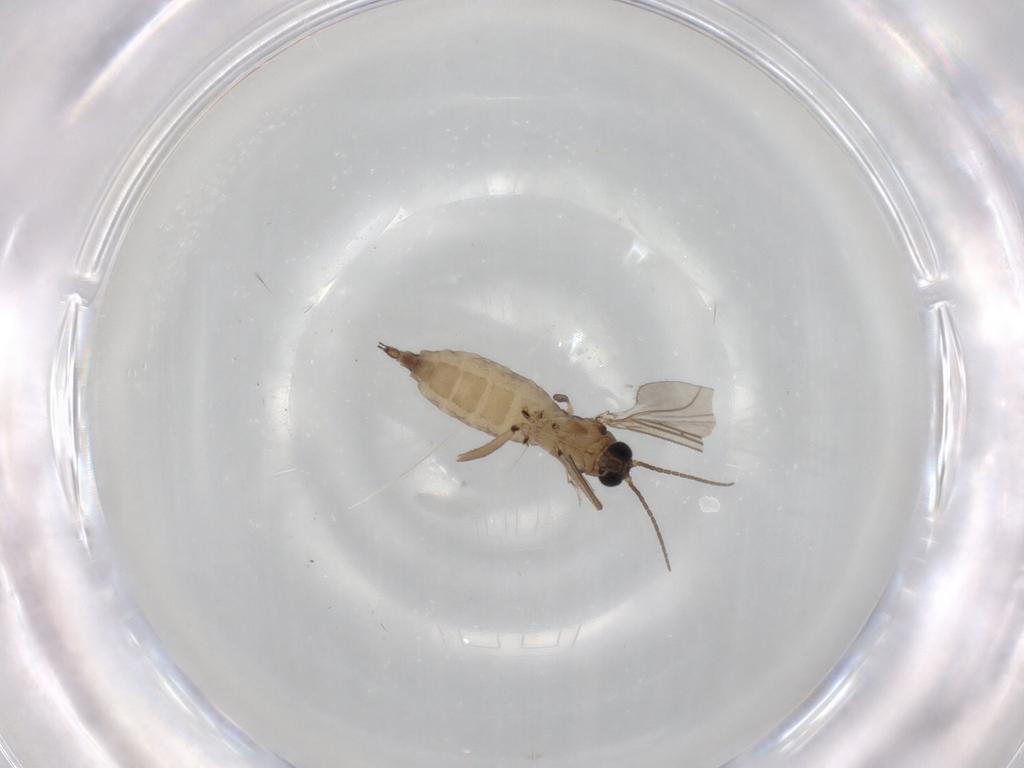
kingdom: Animalia
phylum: Arthropoda
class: Insecta
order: Diptera
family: Sciaridae
